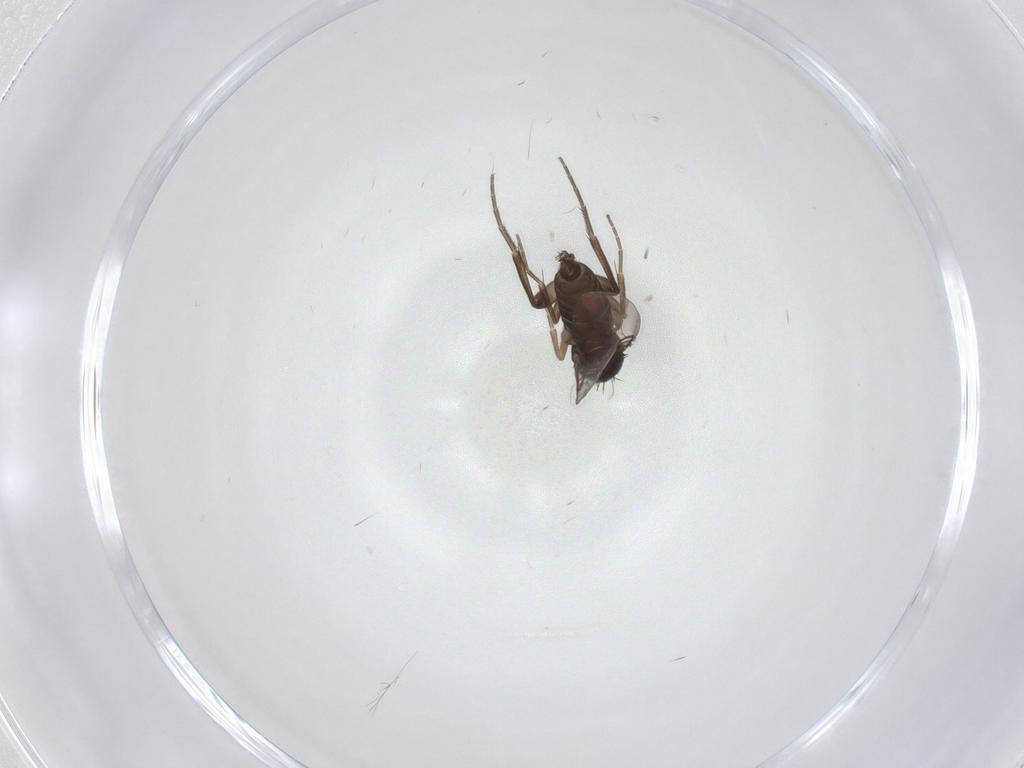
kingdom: Animalia
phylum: Arthropoda
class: Insecta
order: Diptera
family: Phoridae
